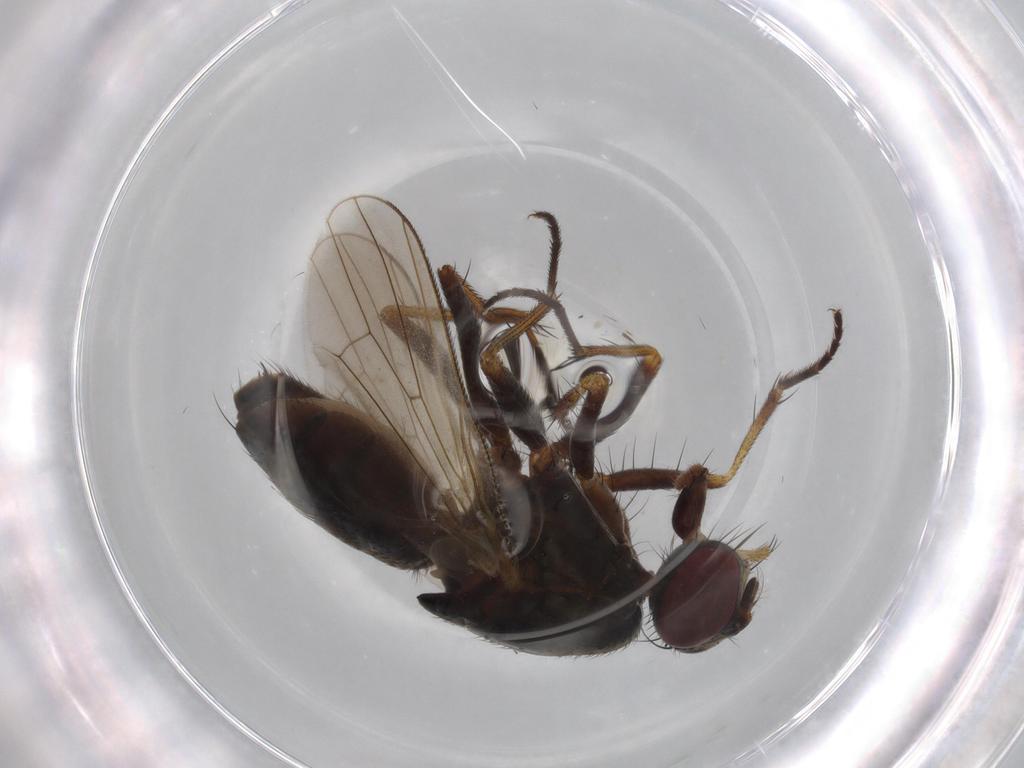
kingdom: Animalia
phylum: Arthropoda
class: Insecta
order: Diptera
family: Muscidae
